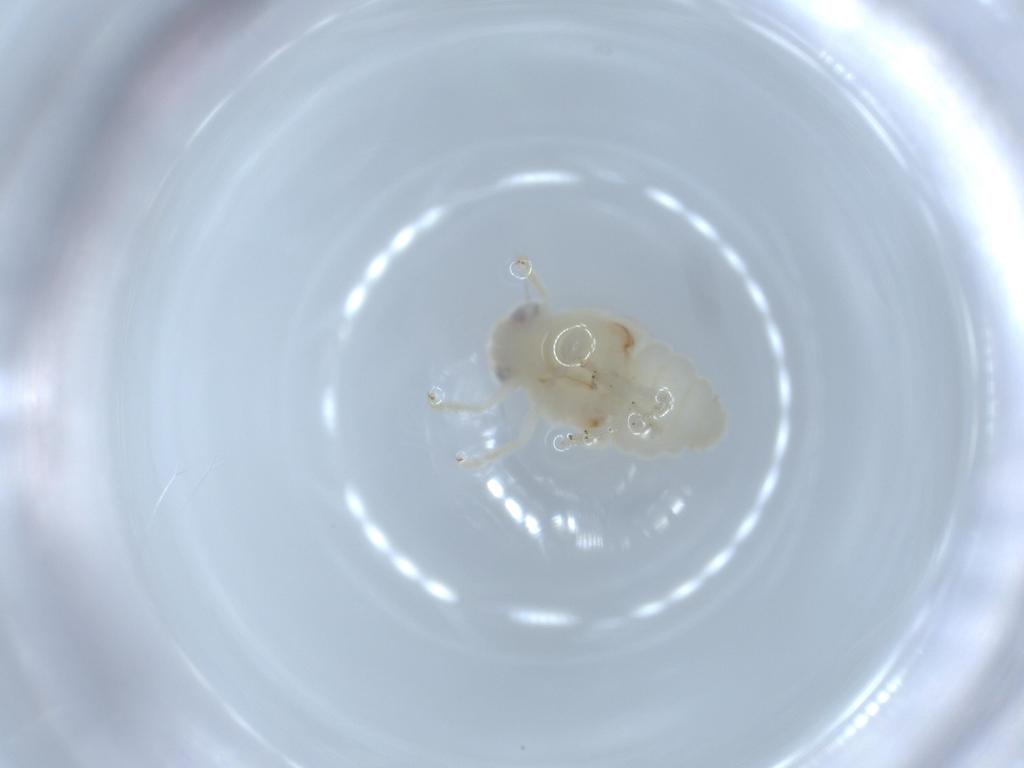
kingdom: Animalia
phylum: Arthropoda
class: Insecta
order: Hemiptera
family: Nogodinidae
